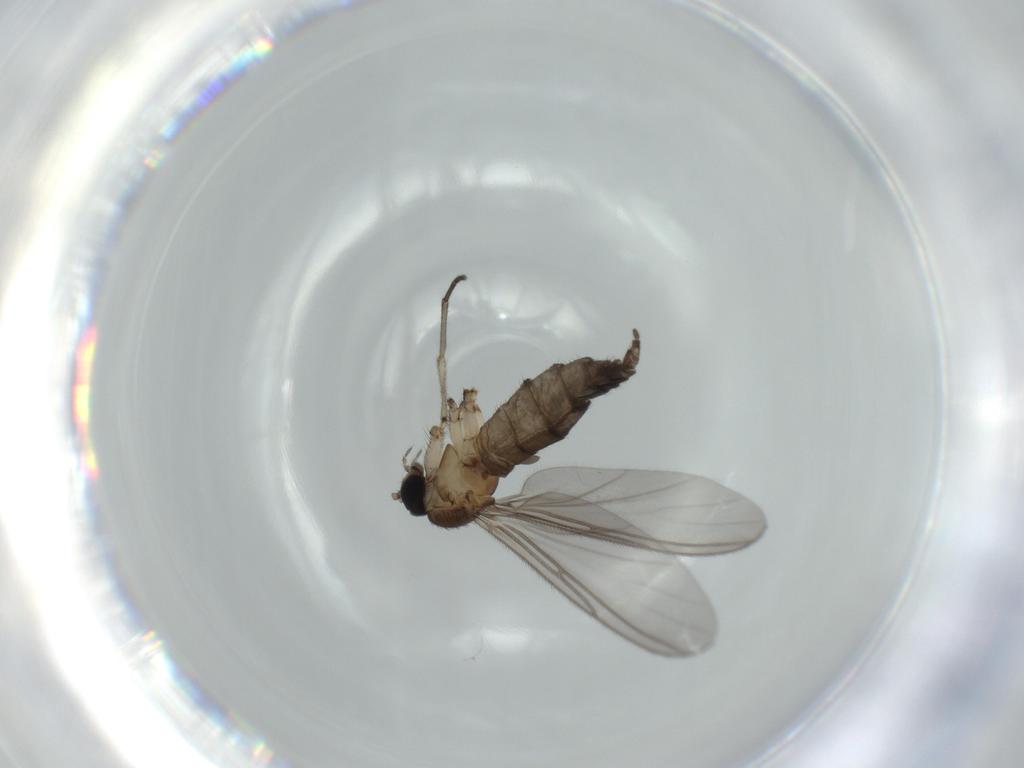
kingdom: Animalia
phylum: Arthropoda
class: Insecta
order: Diptera
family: Sciaridae
